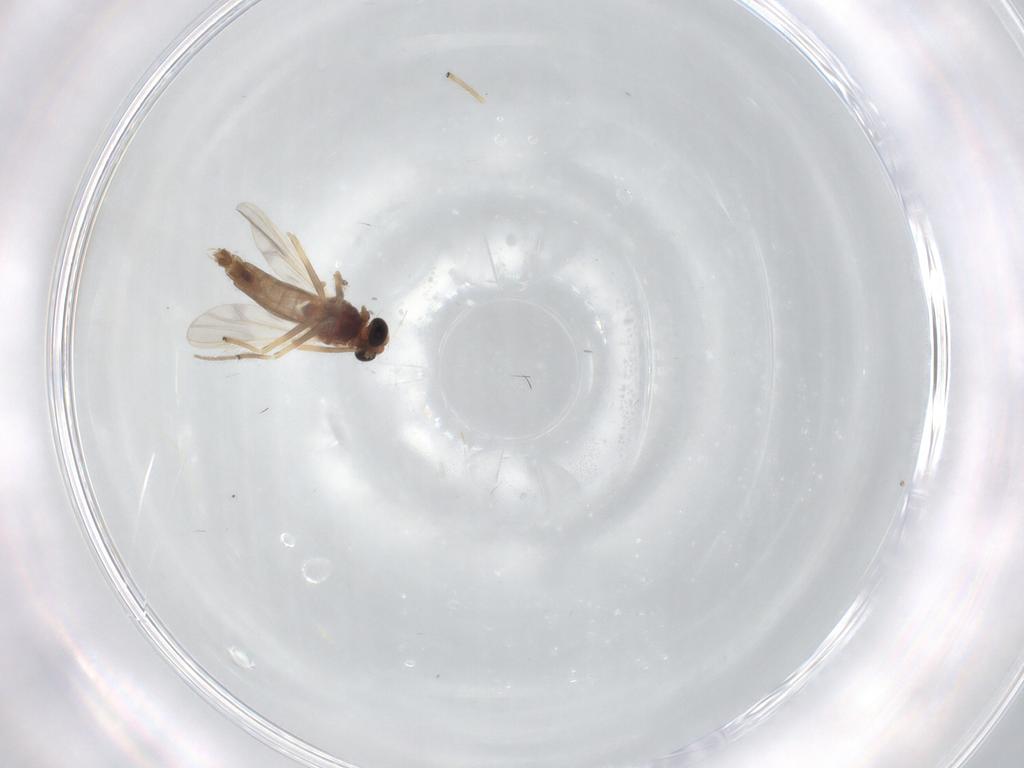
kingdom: Animalia
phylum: Arthropoda
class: Insecta
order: Diptera
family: Chironomidae
